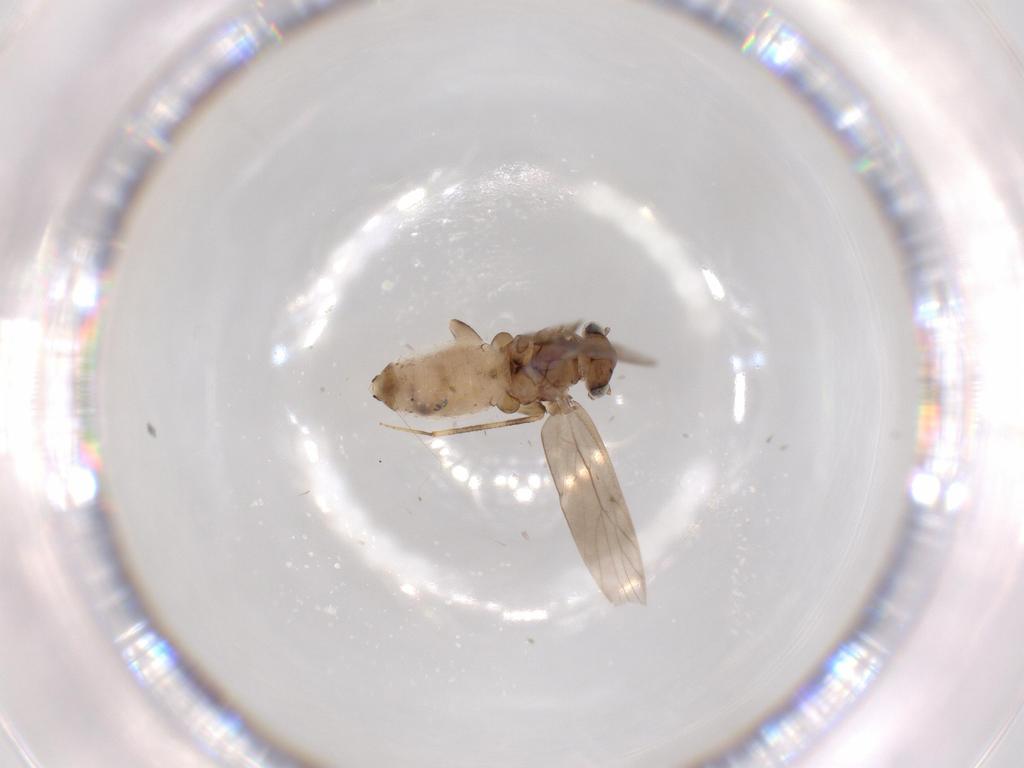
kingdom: Animalia
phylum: Arthropoda
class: Insecta
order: Psocodea
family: Lepidopsocidae
